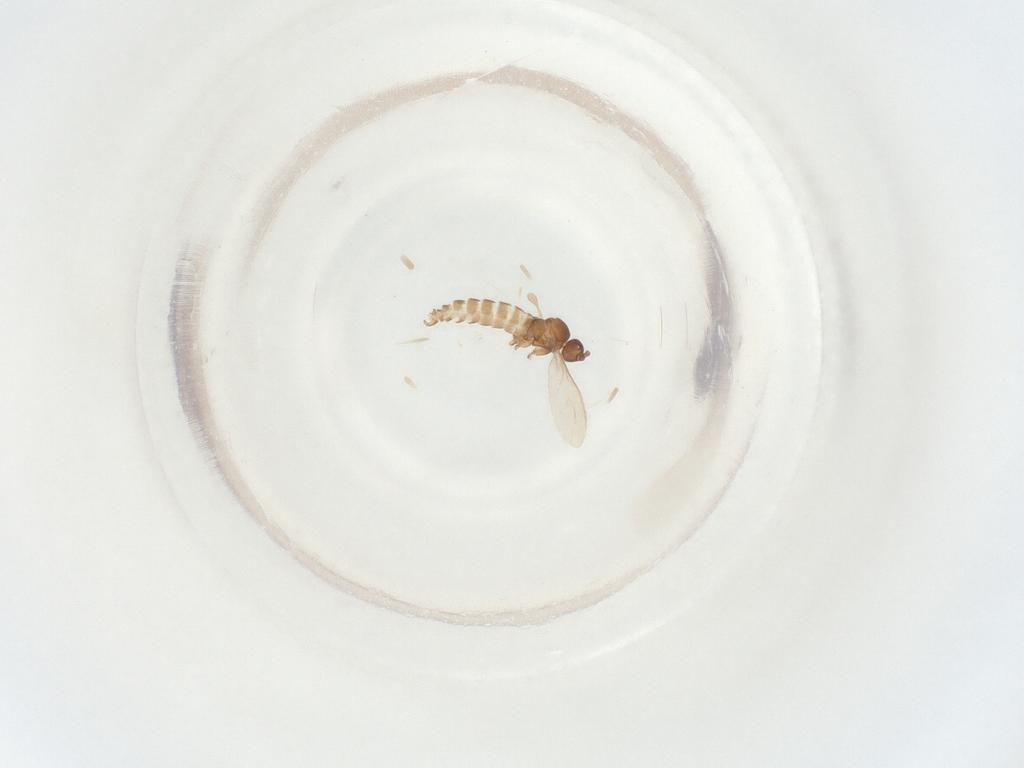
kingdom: Animalia
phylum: Arthropoda
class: Insecta
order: Diptera
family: Sciaridae
